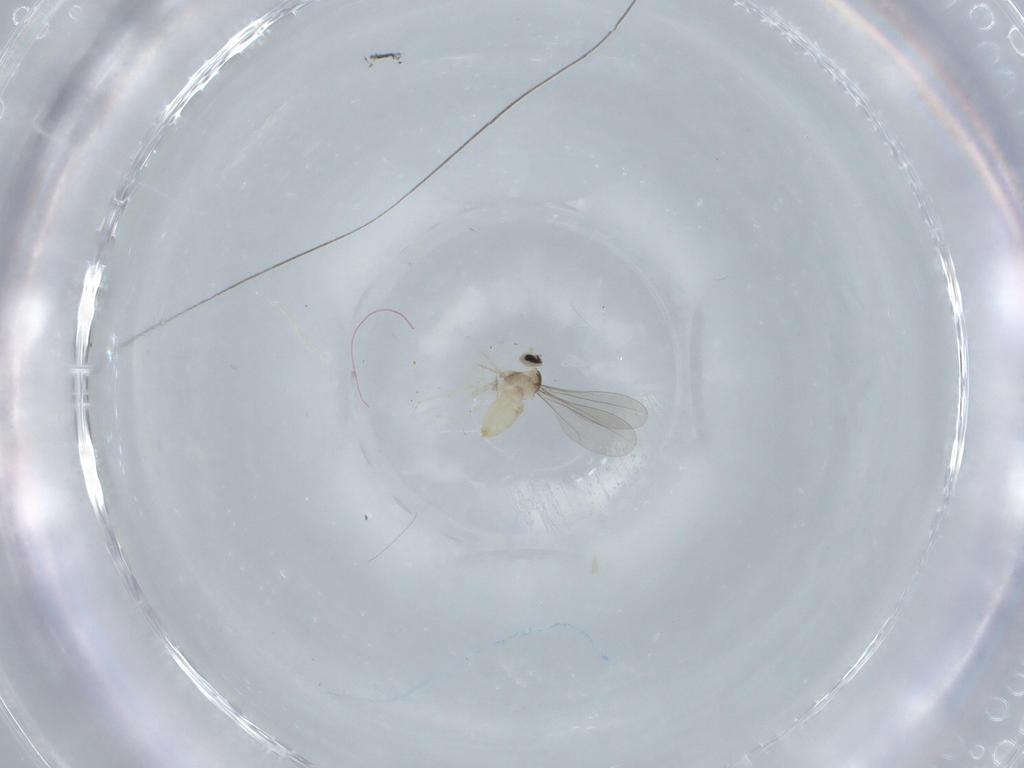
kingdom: Animalia
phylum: Arthropoda
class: Insecta
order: Diptera
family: Cecidomyiidae
